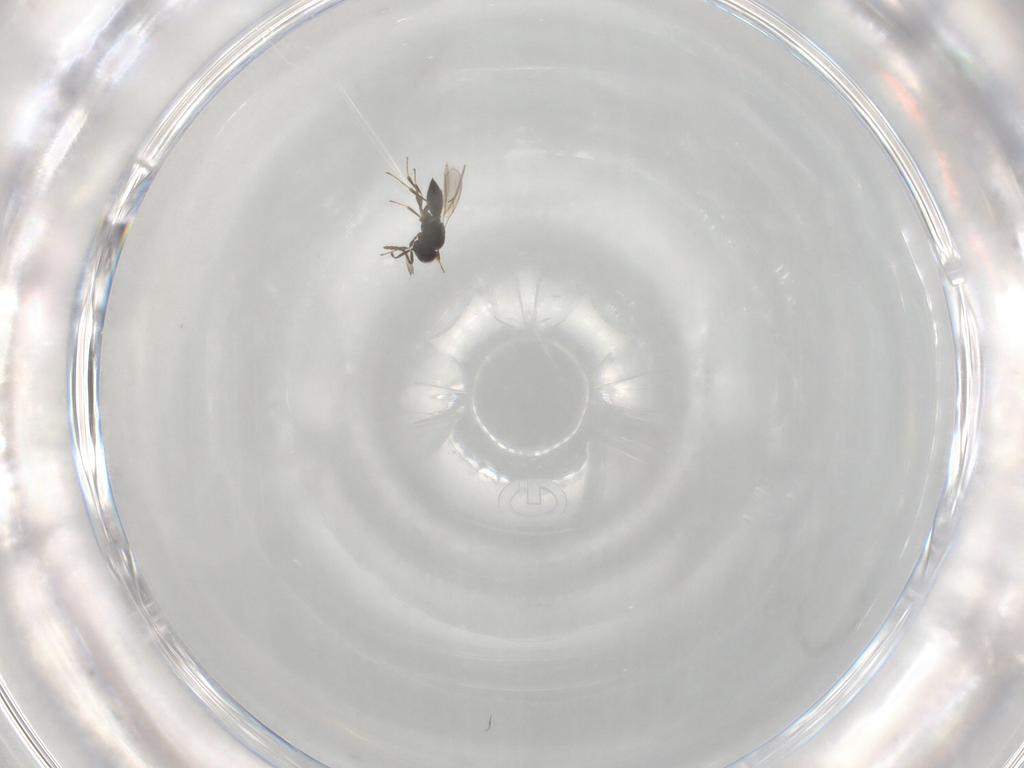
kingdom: Animalia
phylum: Arthropoda
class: Insecta
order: Hymenoptera
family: Scelionidae
